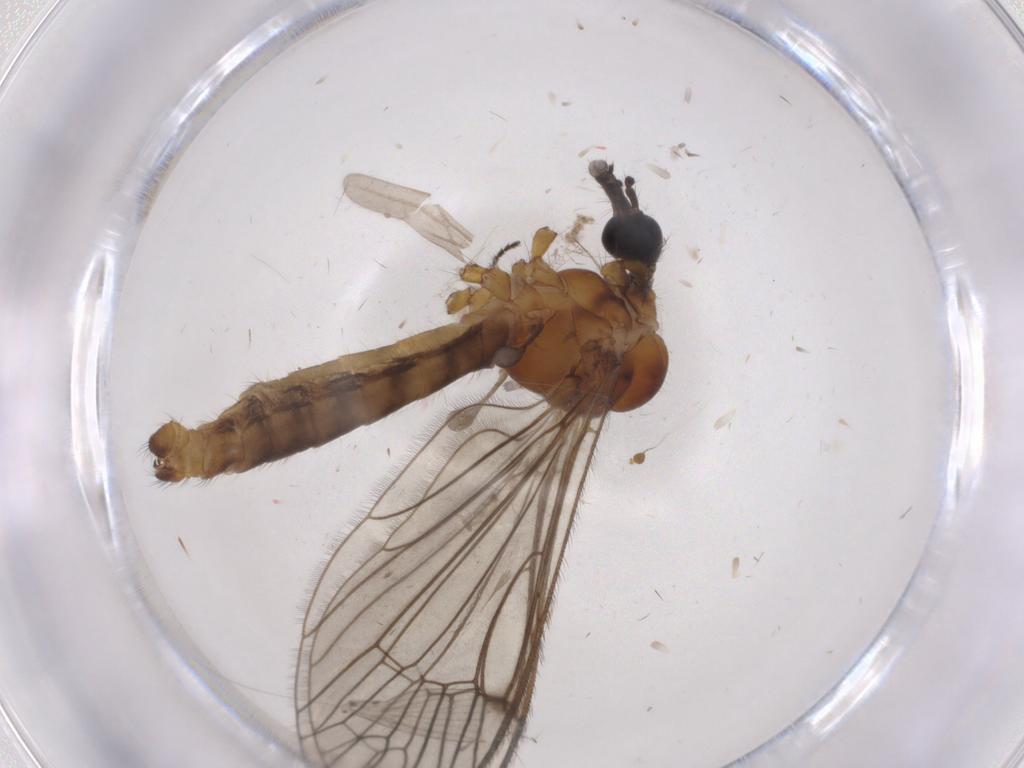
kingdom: Animalia
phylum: Arthropoda
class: Insecta
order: Diptera
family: Limoniidae
